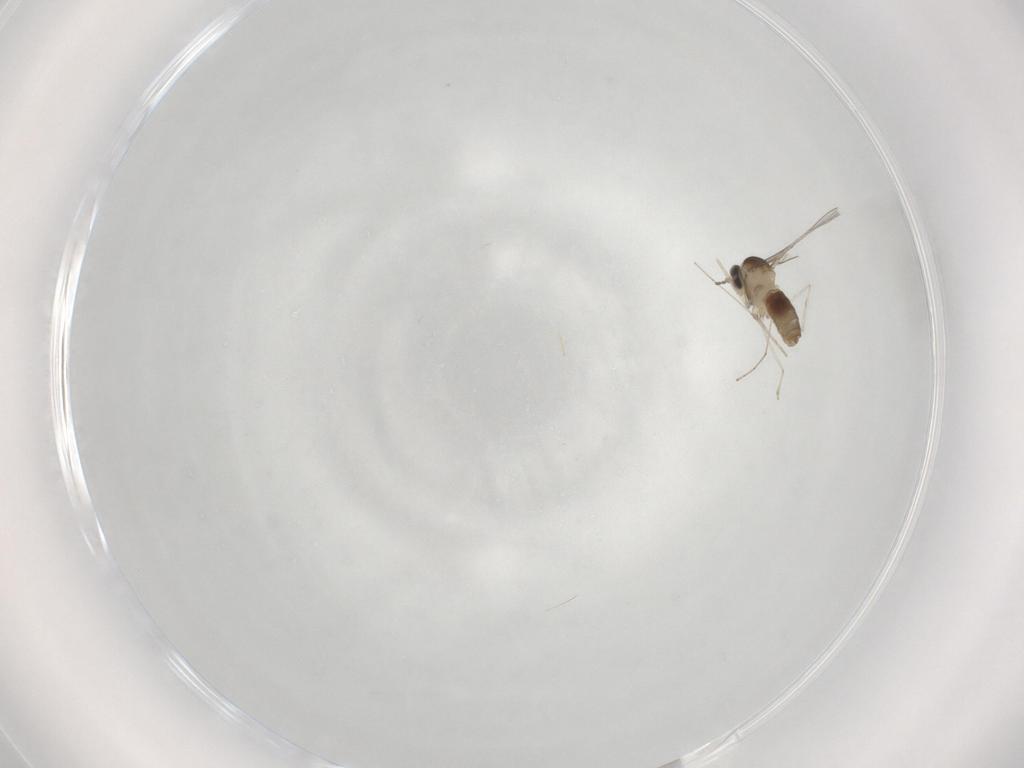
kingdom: Animalia
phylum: Arthropoda
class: Insecta
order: Diptera
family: Cecidomyiidae
